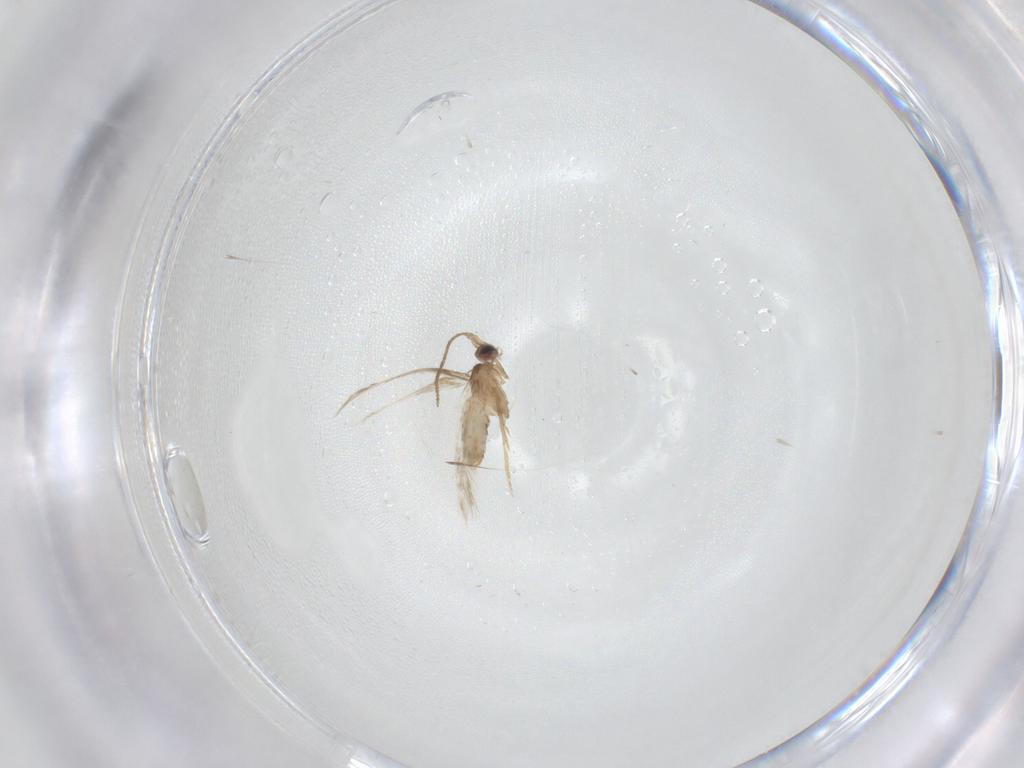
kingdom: Animalia
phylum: Arthropoda
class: Insecta
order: Lepidoptera
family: Nepticulidae
